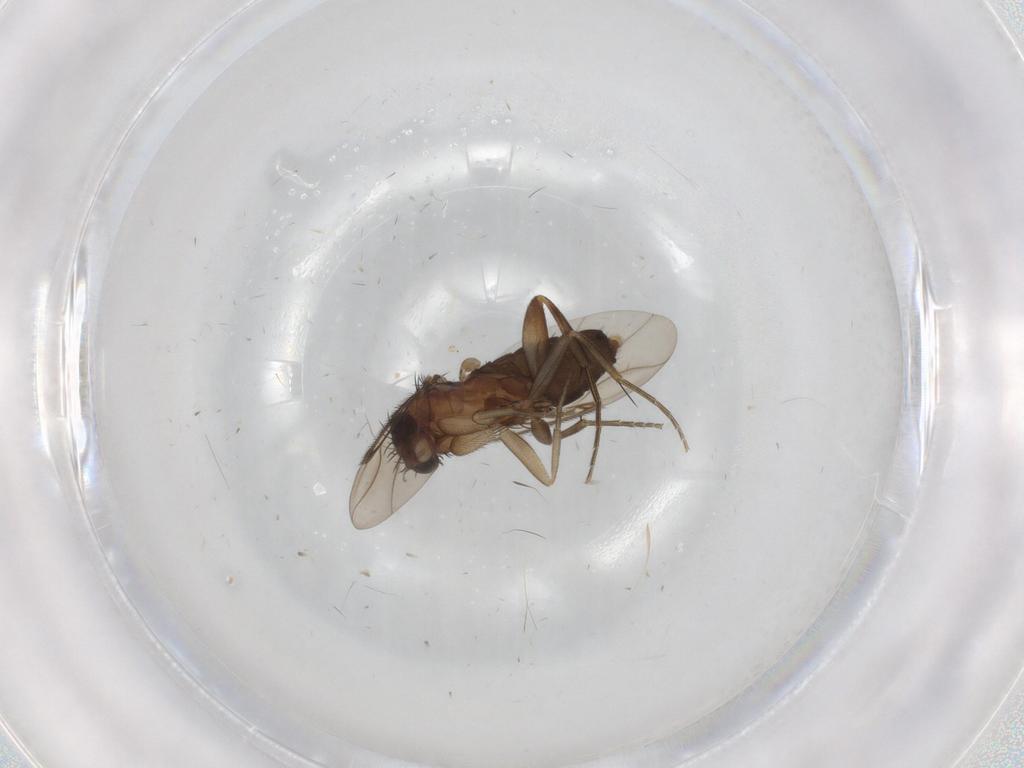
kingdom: Animalia
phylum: Arthropoda
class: Insecta
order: Diptera
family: Phoridae
